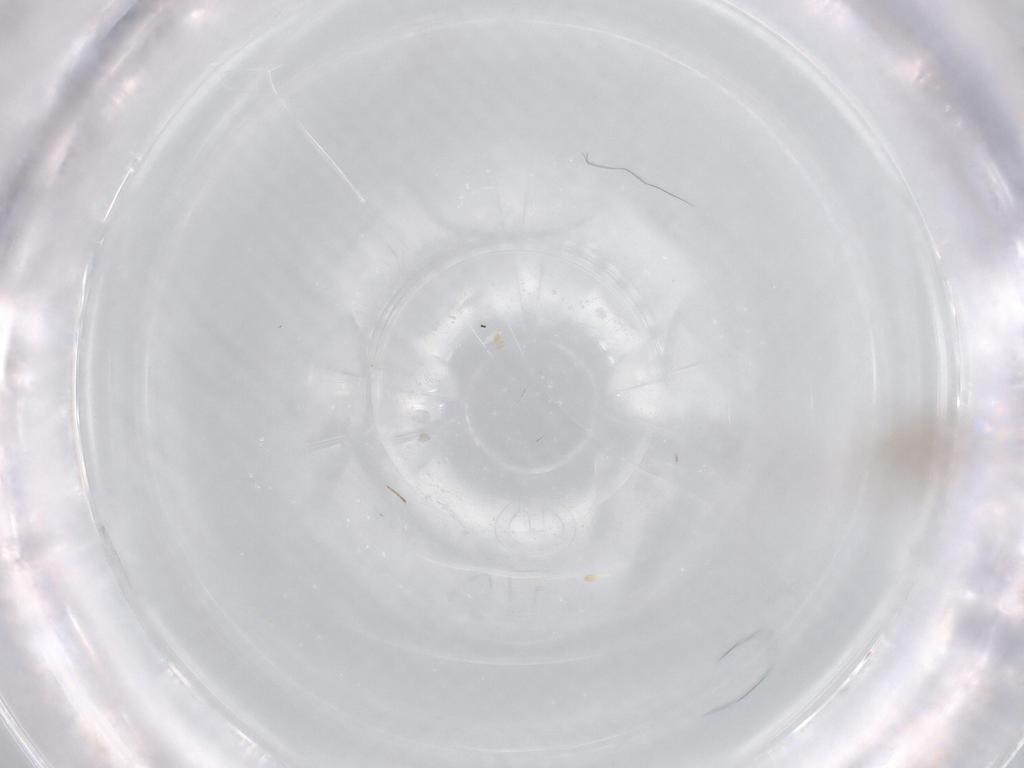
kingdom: Animalia
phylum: Arthropoda
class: Insecta
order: Diptera
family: Cecidomyiidae
